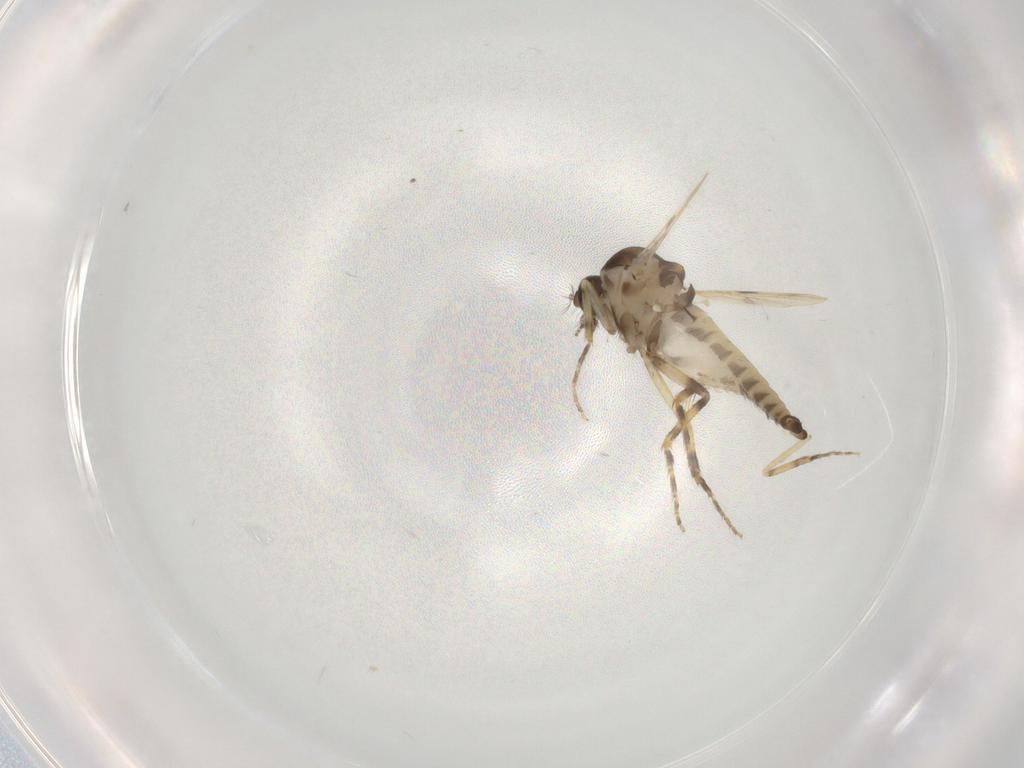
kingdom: Animalia
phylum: Arthropoda
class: Insecta
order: Diptera
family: Ceratopogonidae
